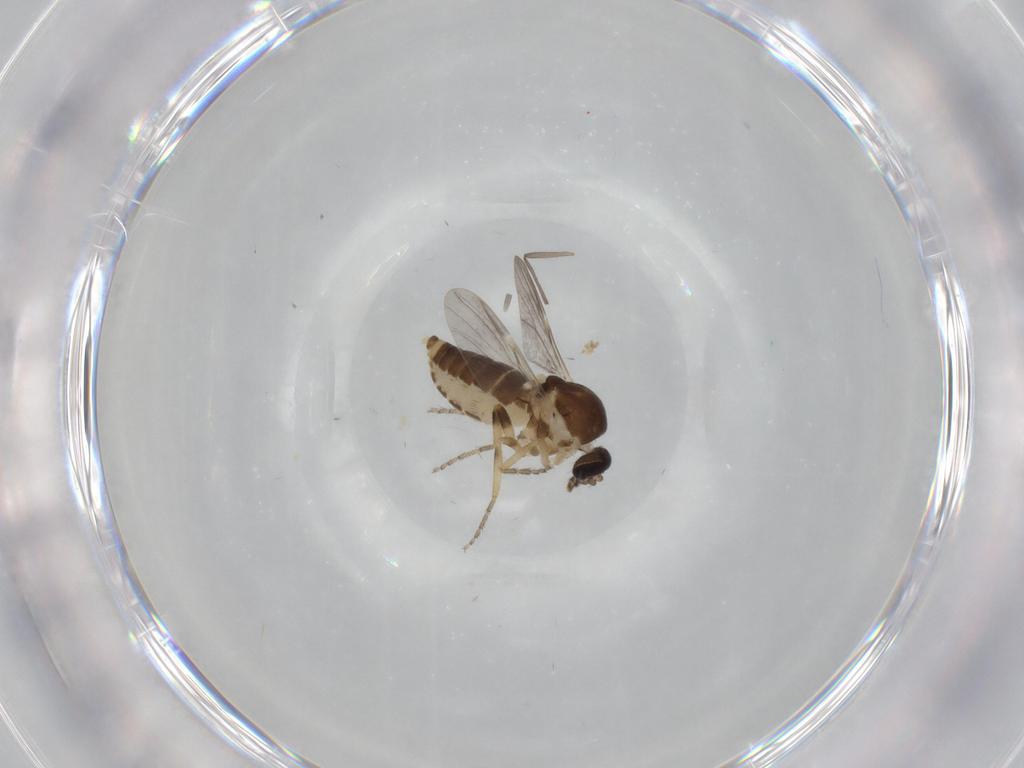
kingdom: Animalia
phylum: Arthropoda
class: Insecta
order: Diptera
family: Ceratopogonidae
